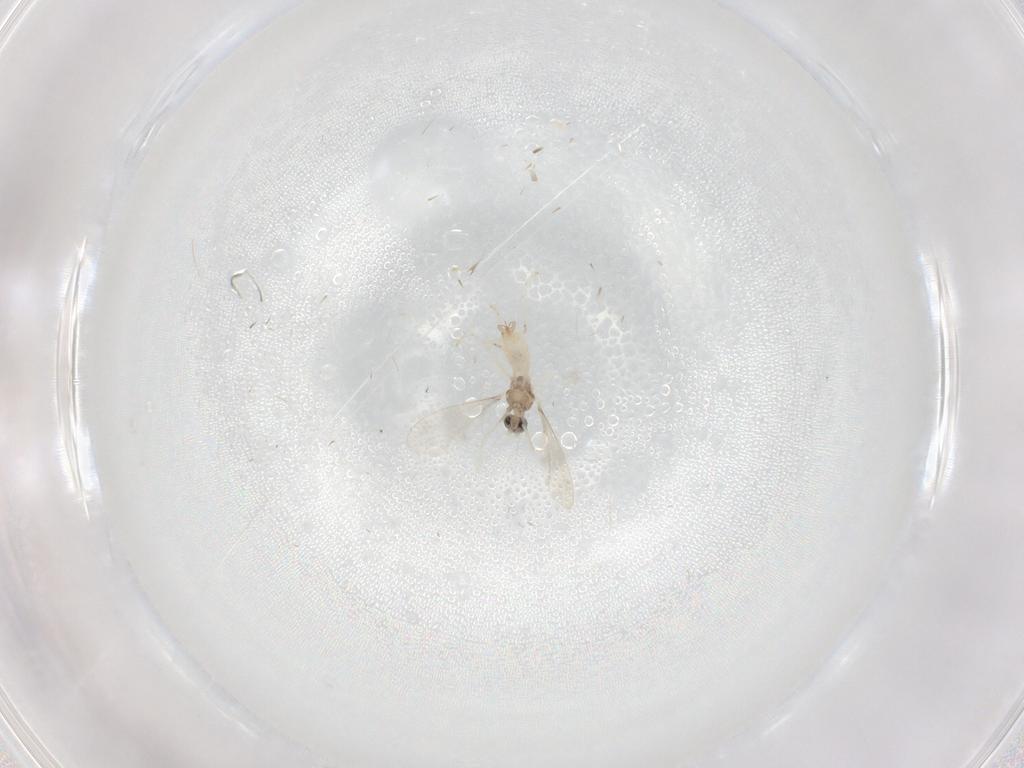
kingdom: Animalia
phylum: Arthropoda
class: Insecta
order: Diptera
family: Cecidomyiidae
